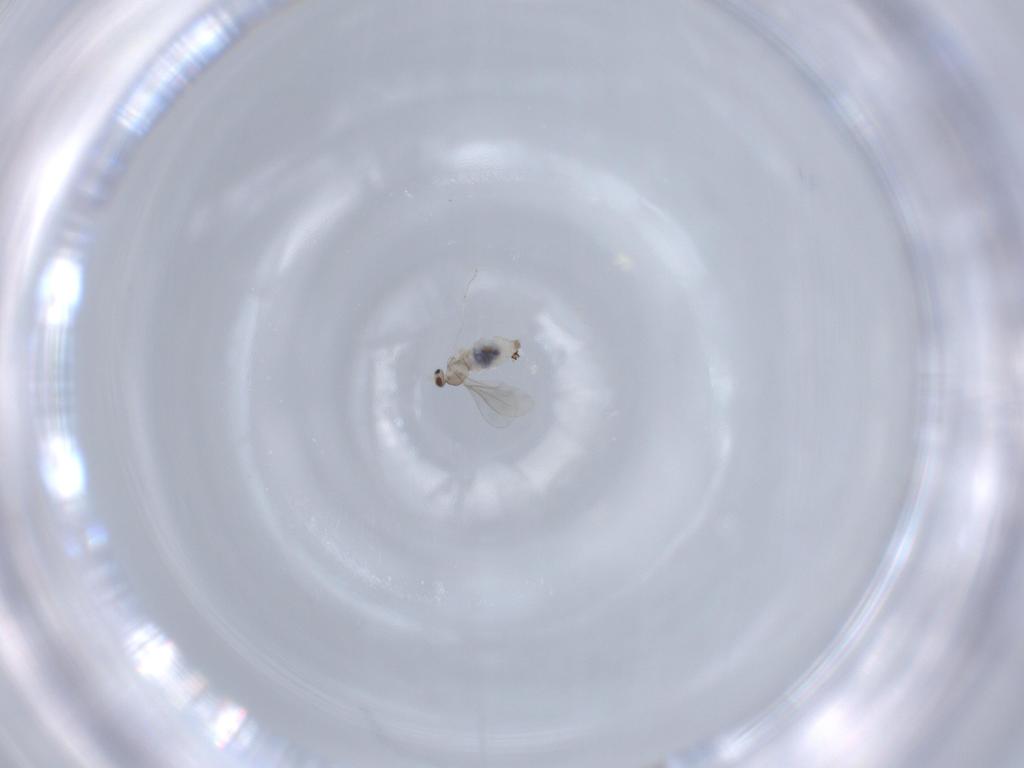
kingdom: Animalia
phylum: Arthropoda
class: Insecta
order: Diptera
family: Cecidomyiidae
